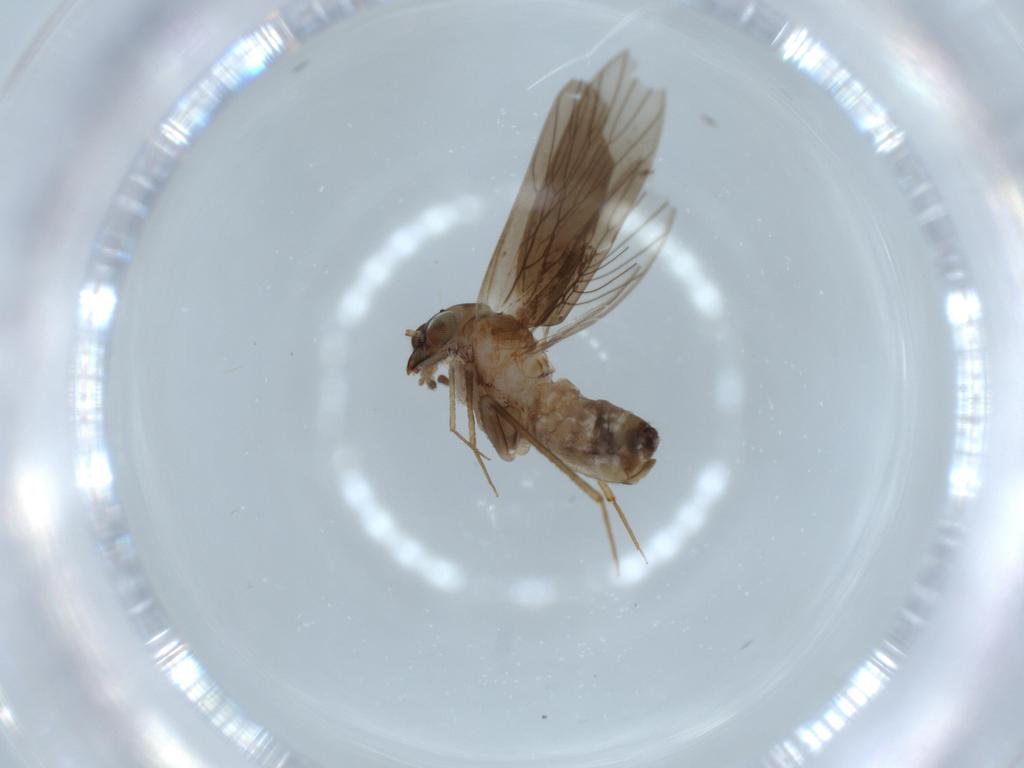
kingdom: Animalia
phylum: Arthropoda
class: Insecta
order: Psocodea
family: Lepidopsocidae
